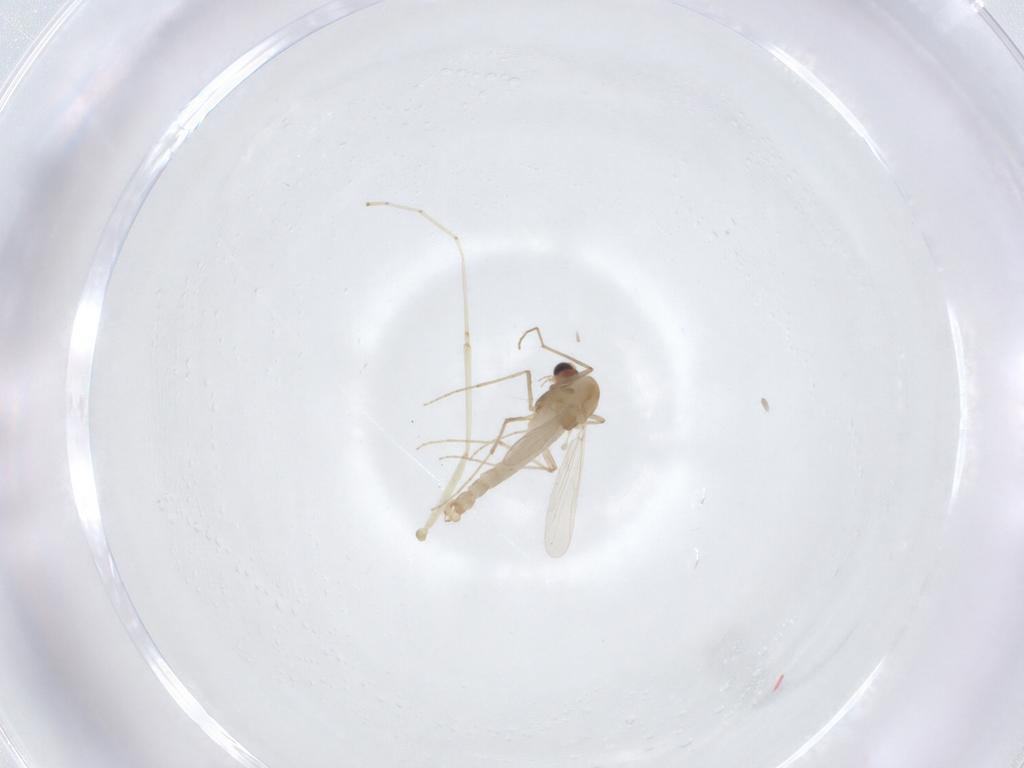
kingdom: Animalia
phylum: Arthropoda
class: Insecta
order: Diptera
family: Chironomidae
